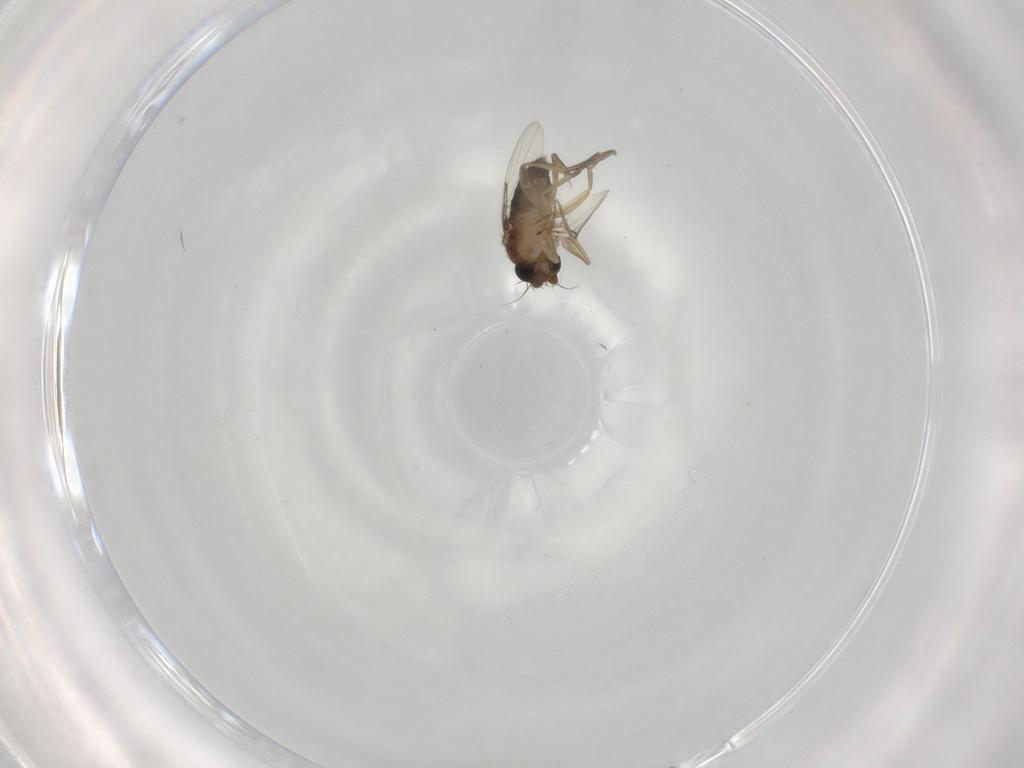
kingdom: Animalia
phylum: Arthropoda
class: Insecta
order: Diptera
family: Phoridae
